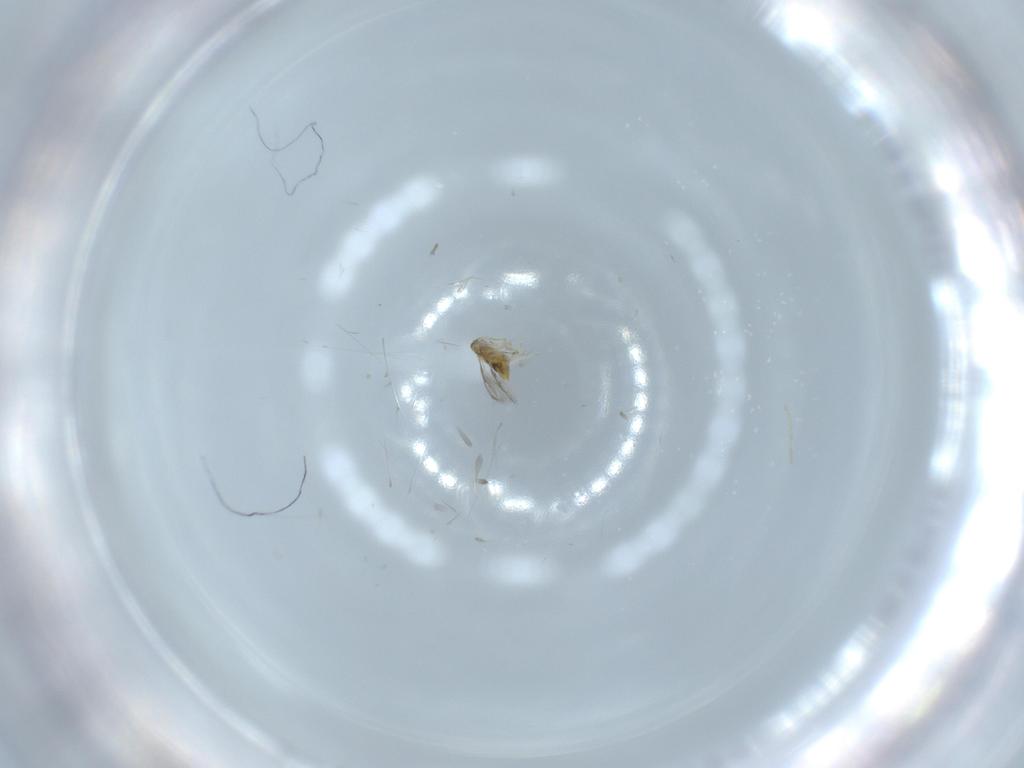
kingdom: Animalia
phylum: Arthropoda
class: Insecta
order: Hymenoptera
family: Aphelinidae
